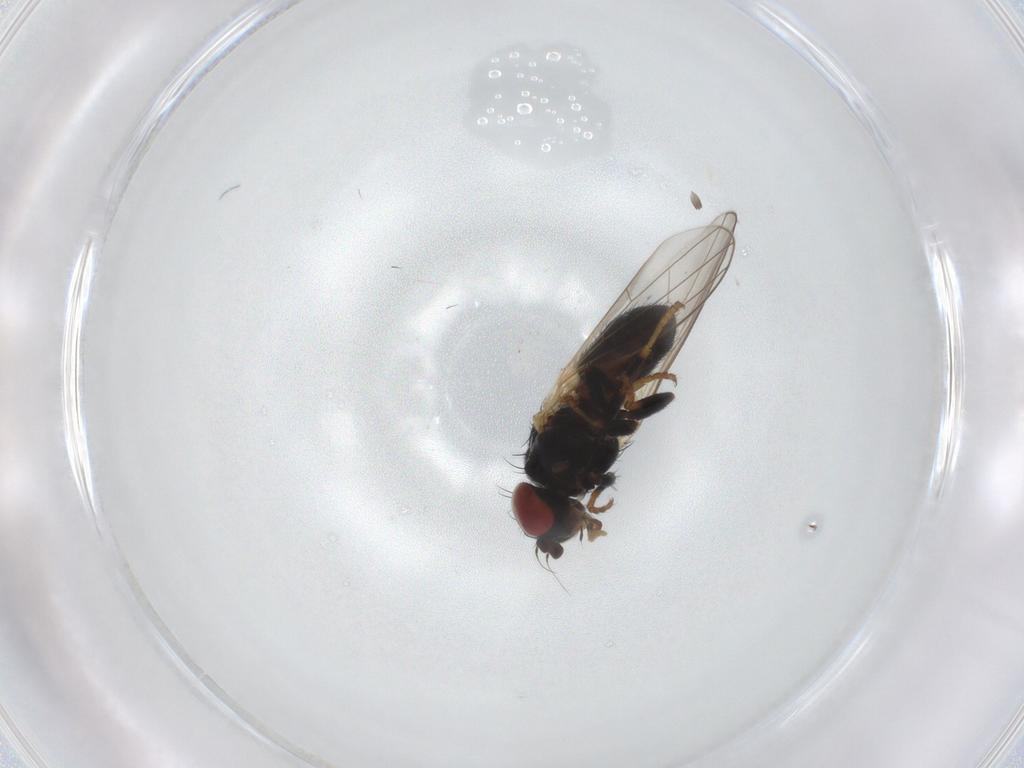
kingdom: Animalia
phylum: Arthropoda
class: Insecta
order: Diptera
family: Chamaemyiidae
